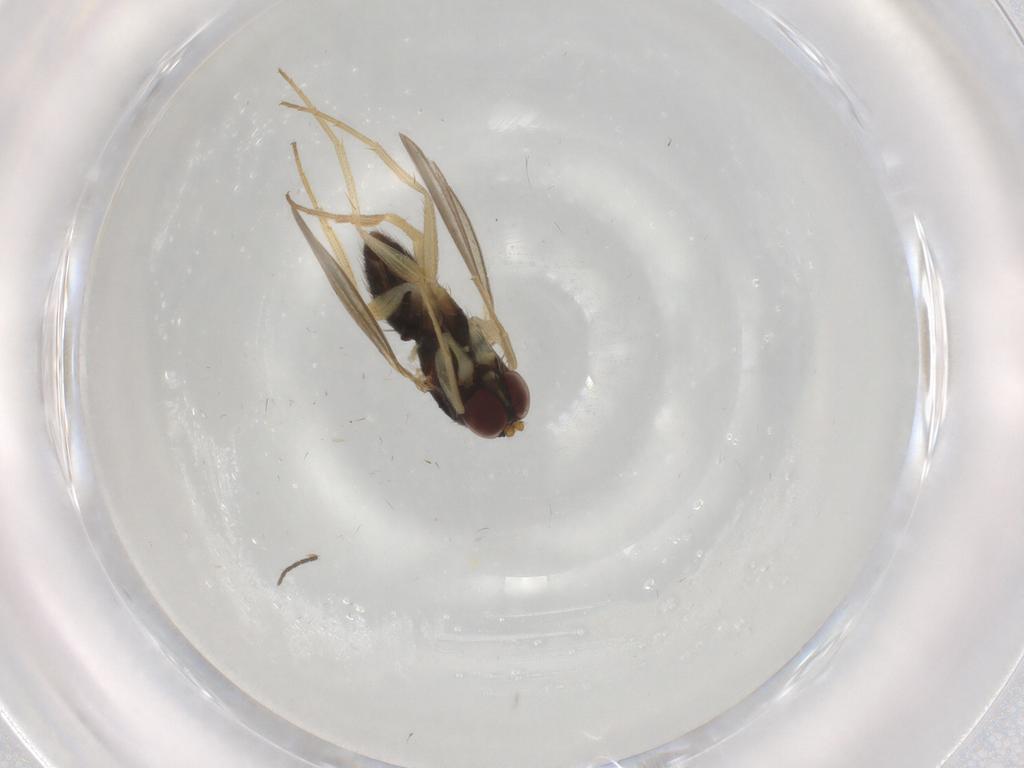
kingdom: Animalia
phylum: Arthropoda
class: Insecta
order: Diptera
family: Dolichopodidae
